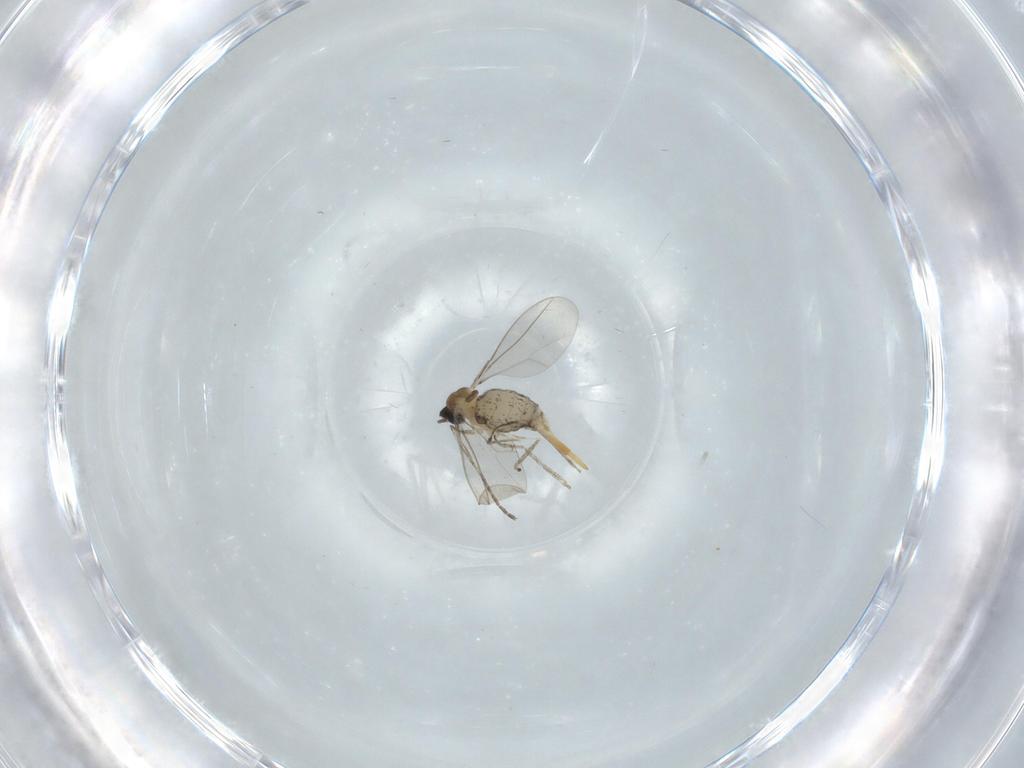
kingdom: Animalia
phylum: Arthropoda
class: Insecta
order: Diptera
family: Cecidomyiidae
